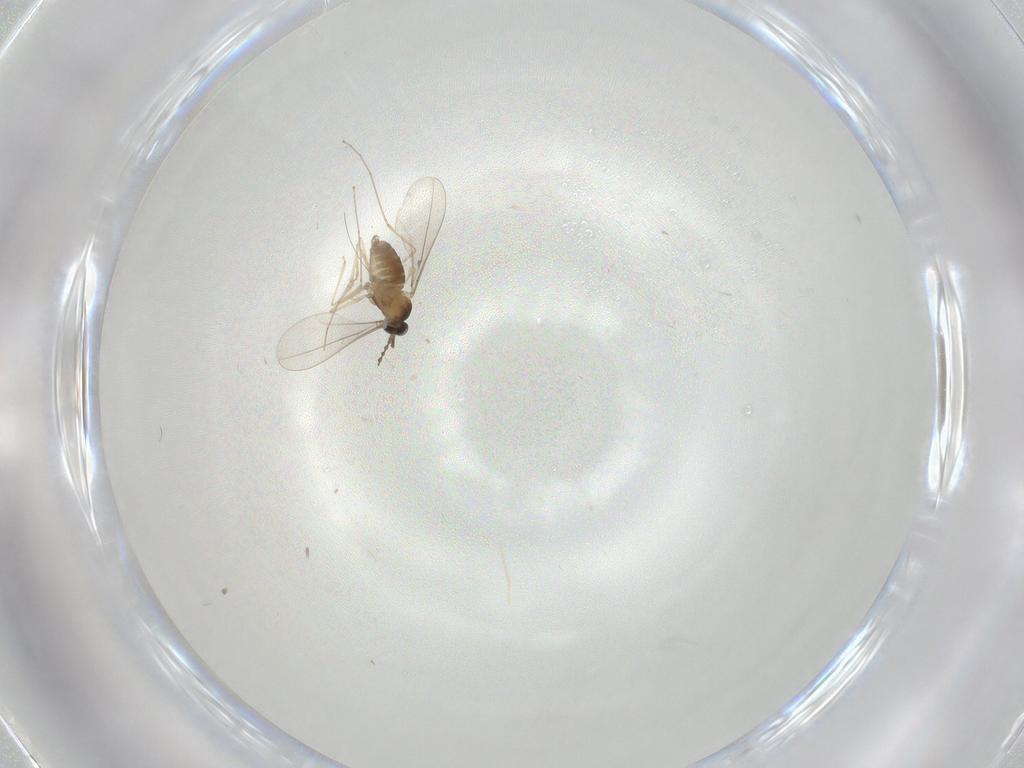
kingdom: Animalia
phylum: Arthropoda
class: Insecta
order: Diptera
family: Cecidomyiidae
